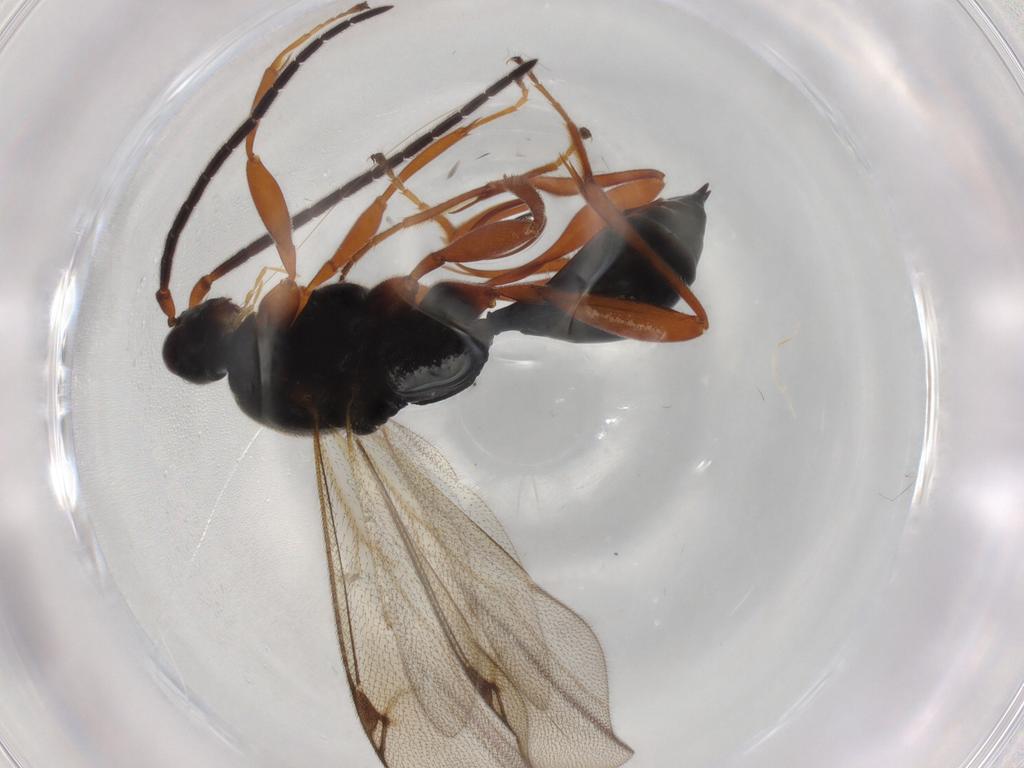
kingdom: Animalia
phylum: Arthropoda
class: Insecta
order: Hymenoptera
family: Proctotrupidae
